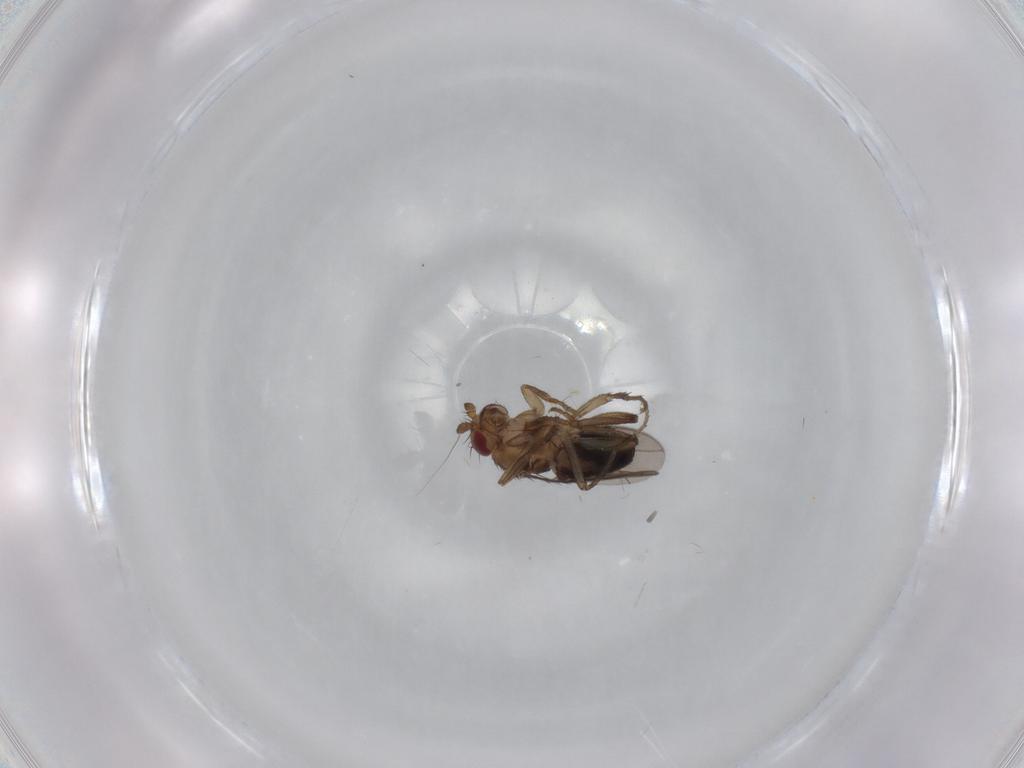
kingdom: Animalia
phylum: Arthropoda
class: Insecta
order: Diptera
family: Sphaeroceridae
